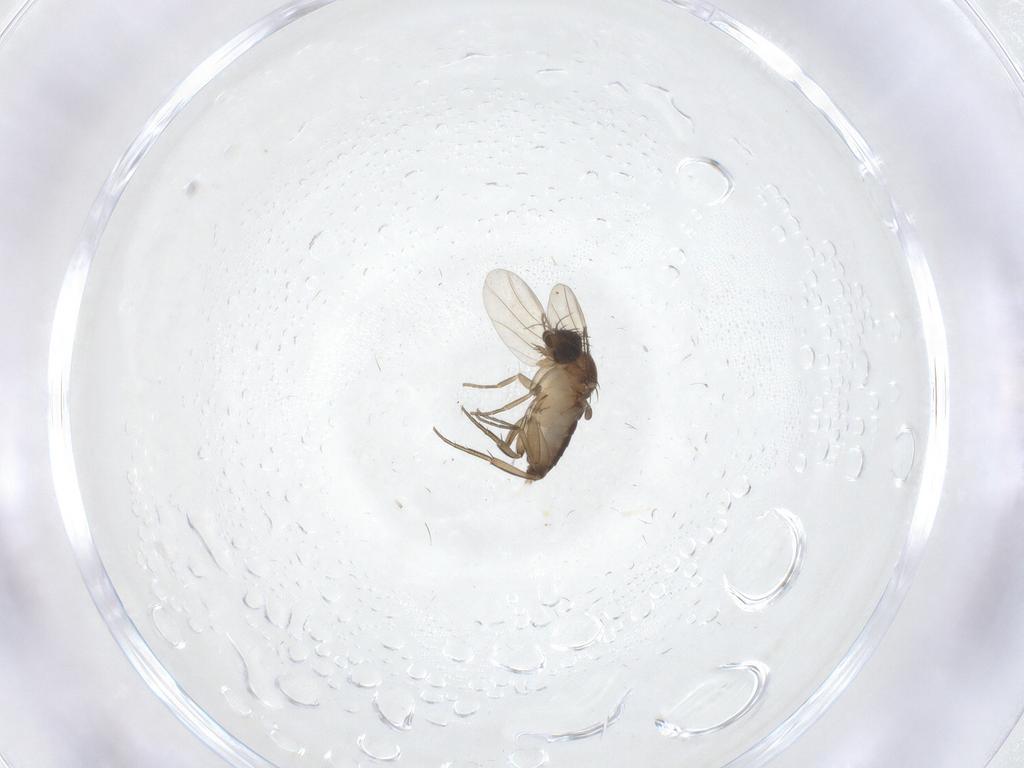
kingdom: Animalia
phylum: Arthropoda
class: Insecta
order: Diptera
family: Phoridae
